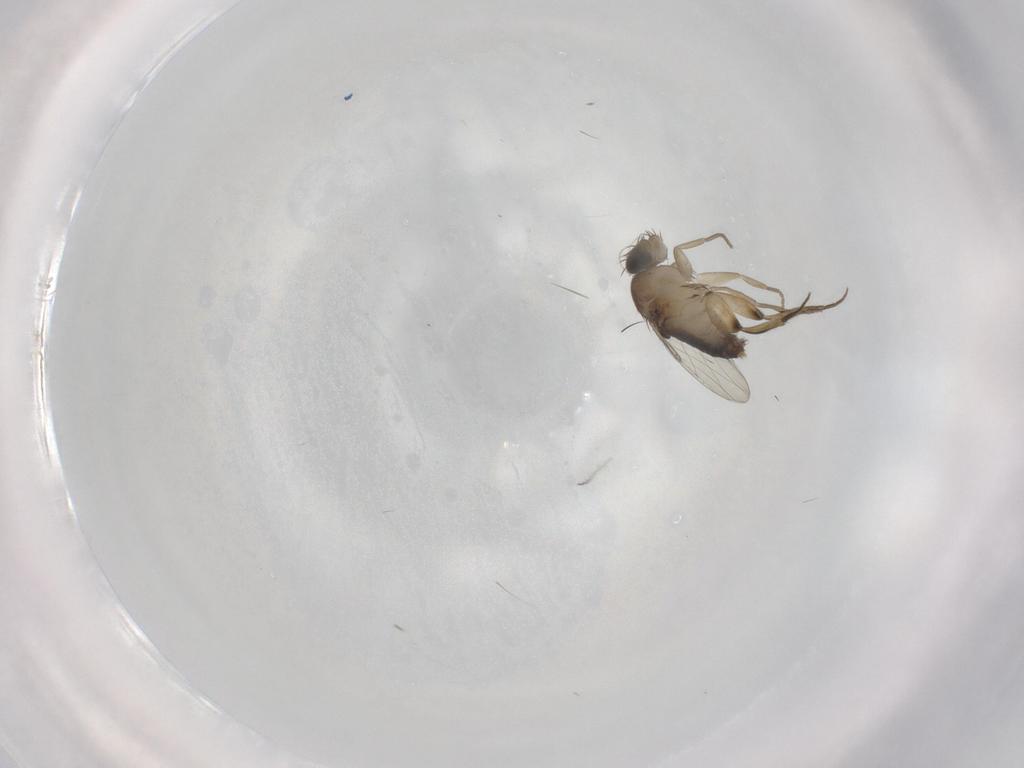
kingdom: Animalia
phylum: Arthropoda
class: Insecta
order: Diptera
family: Phoridae
